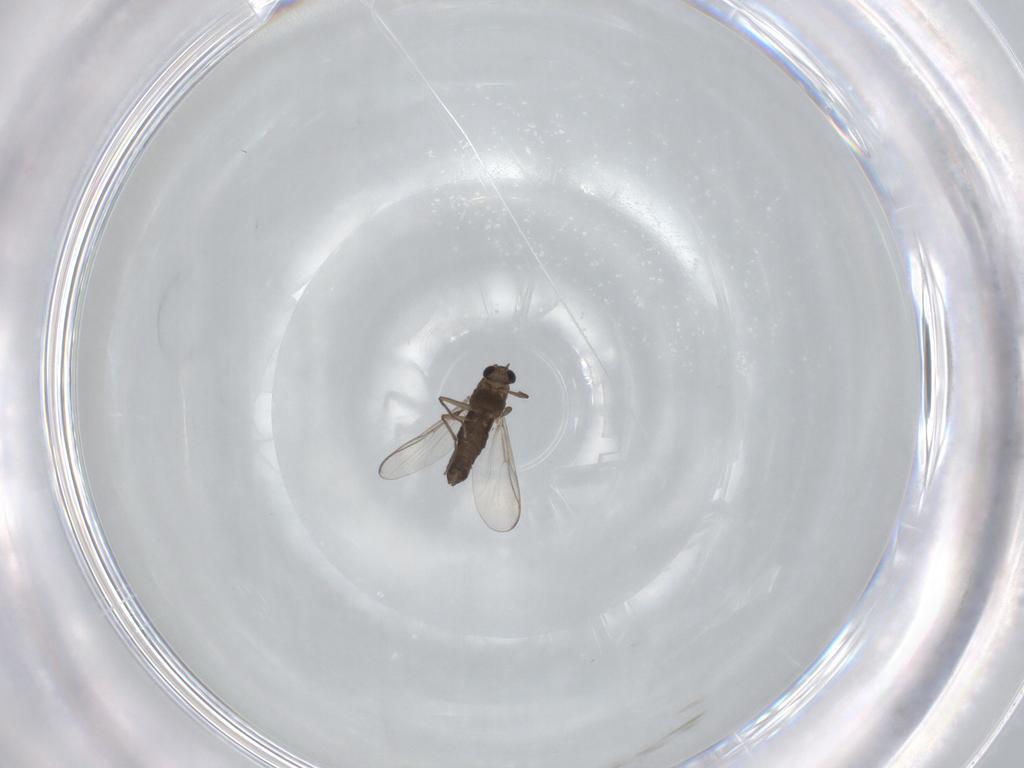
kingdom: Animalia
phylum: Arthropoda
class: Insecta
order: Diptera
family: Chironomidae
